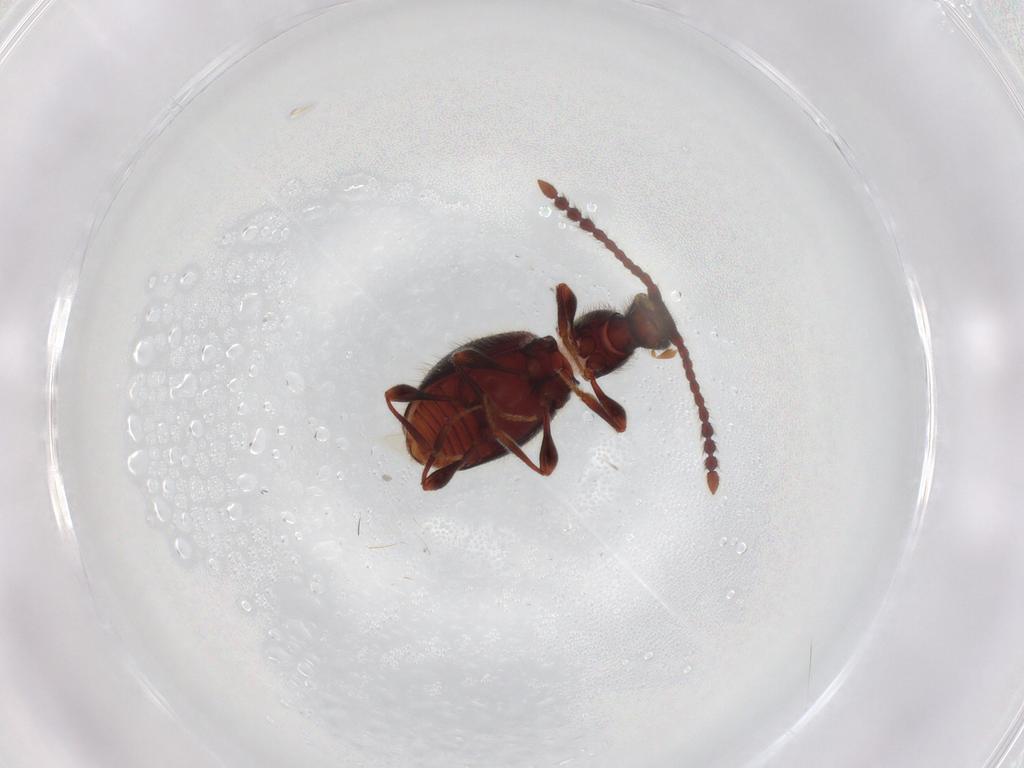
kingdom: Animalia
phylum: Arthropoda
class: Insecta
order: Coleoptera
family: Staphylinidae
